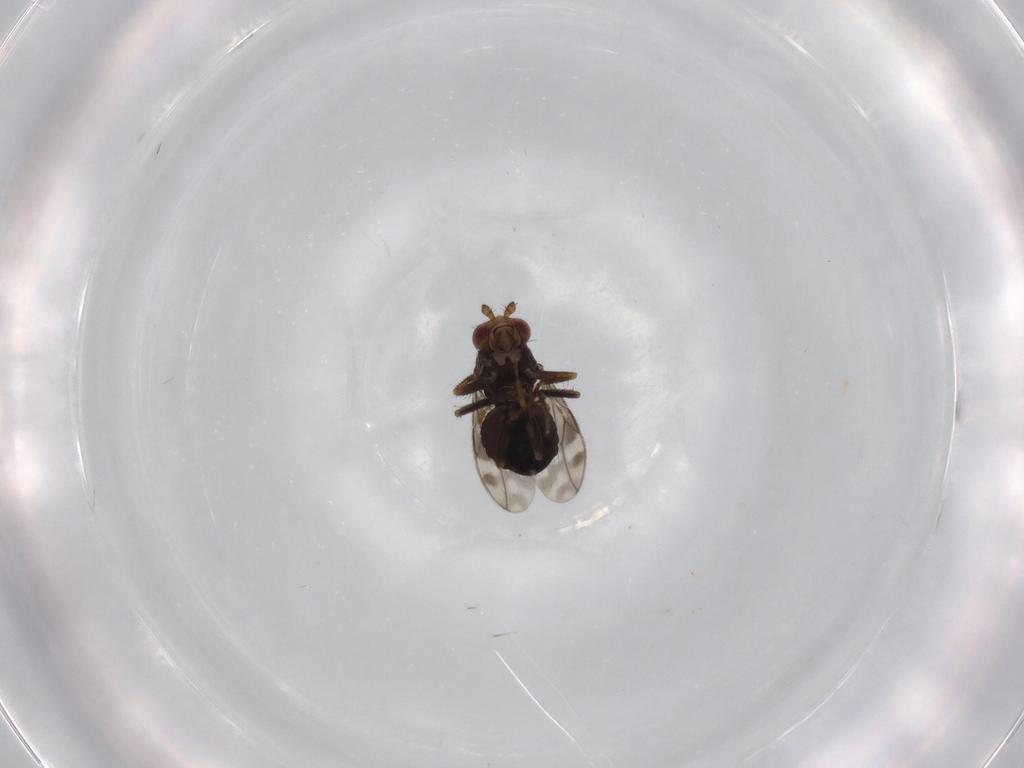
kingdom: Animalia
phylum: Arthropoda
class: Insecta
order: Diptera
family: Sphaeroceridae
